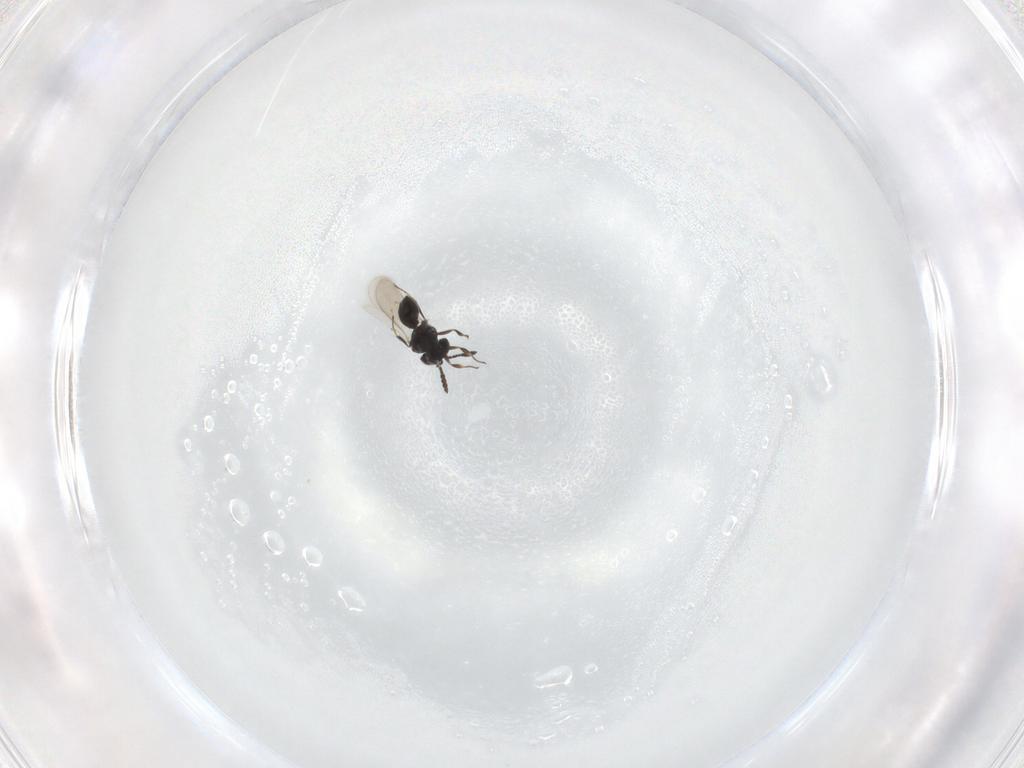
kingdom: Animalia
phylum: Arthropoda
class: Insecta
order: Hymenoptera
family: Scelionidae
